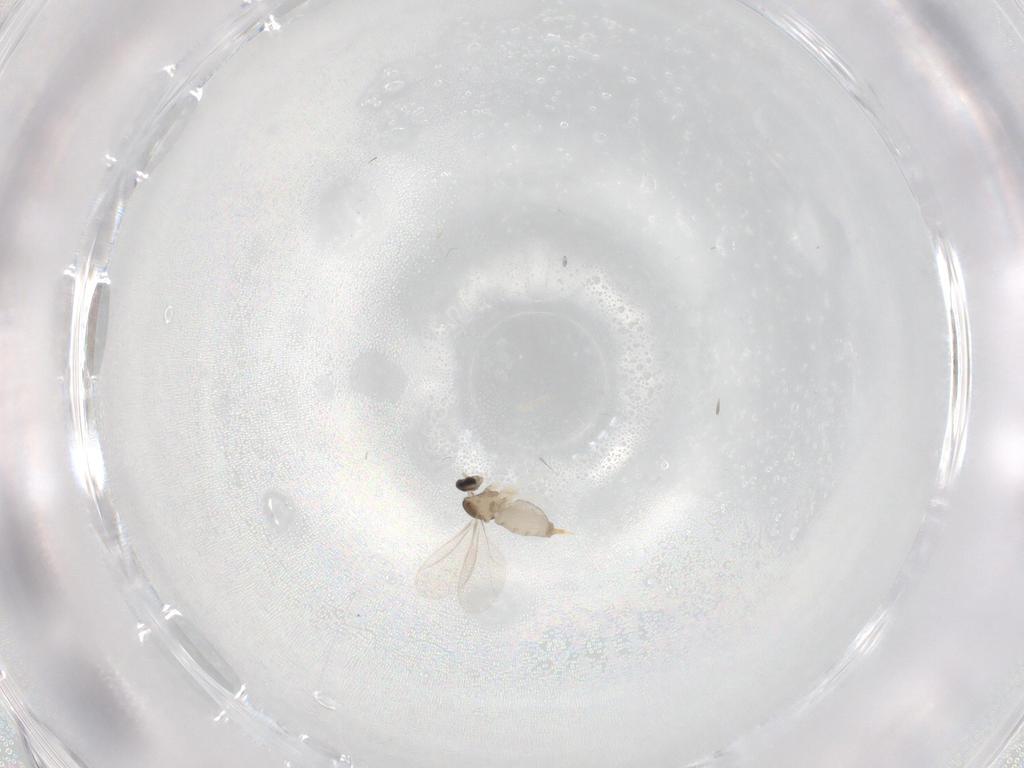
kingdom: Animalia
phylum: Arthropoda
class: Insecta
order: Diptera
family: Cecidomyiidae
